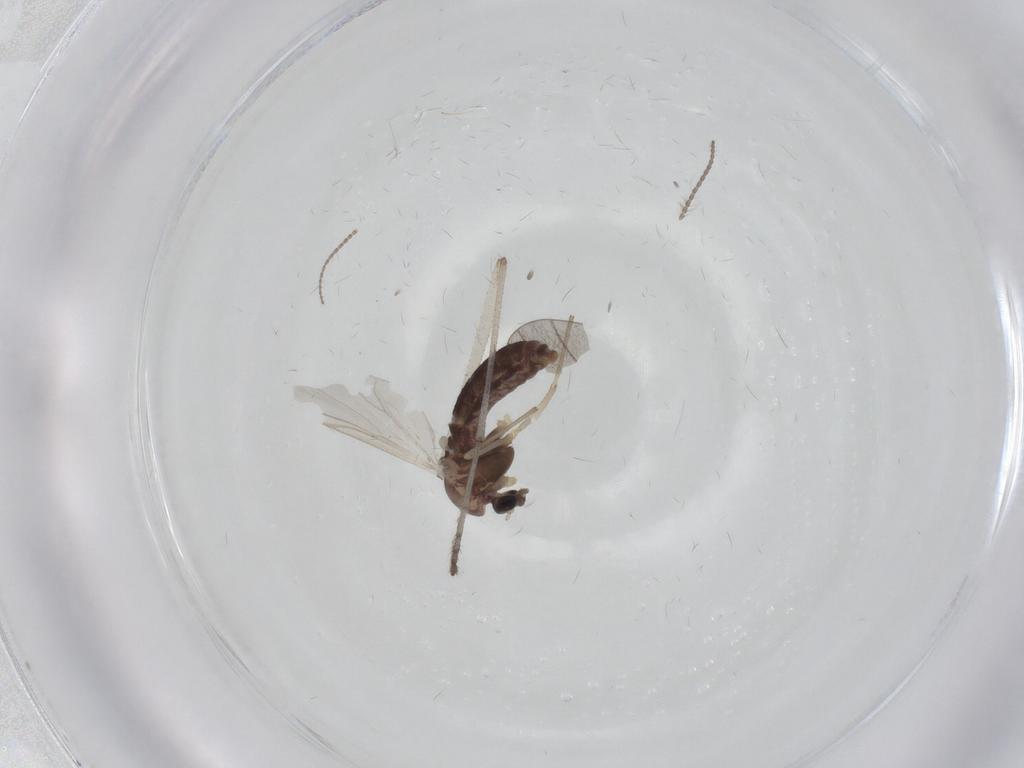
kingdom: Animalia
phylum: Arthropoda
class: Insecta
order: Diptera
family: Chironomidae
